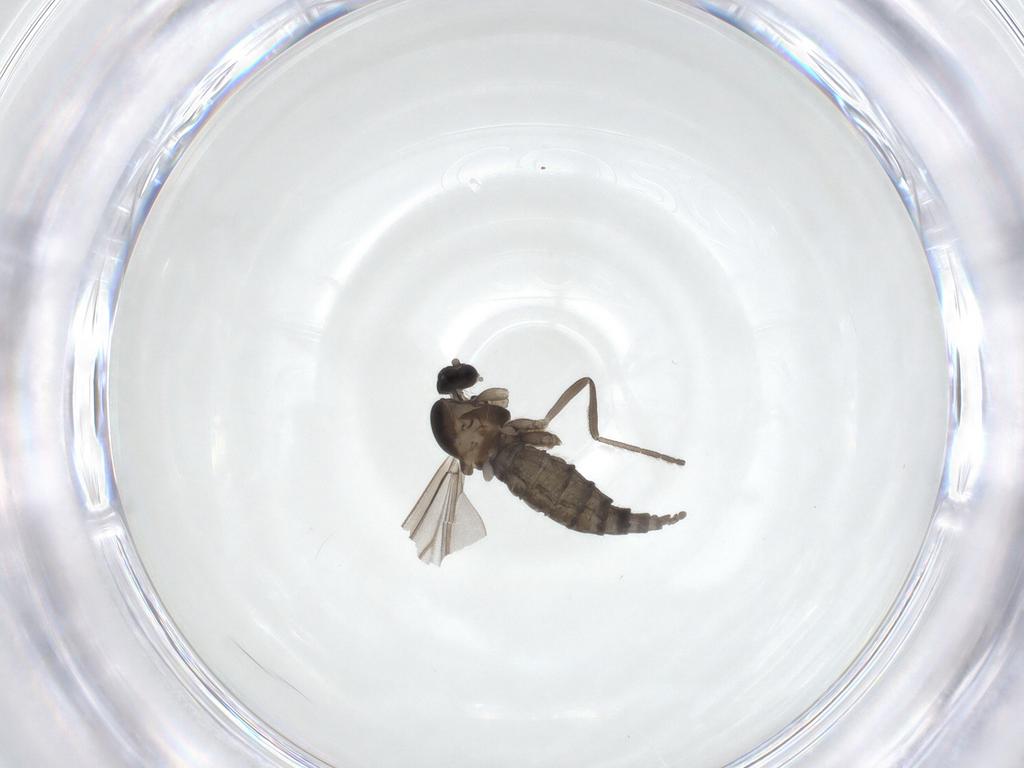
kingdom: Animalia
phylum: Arthropoda
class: Insecta
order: Diptera
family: Cecidomyiidae
